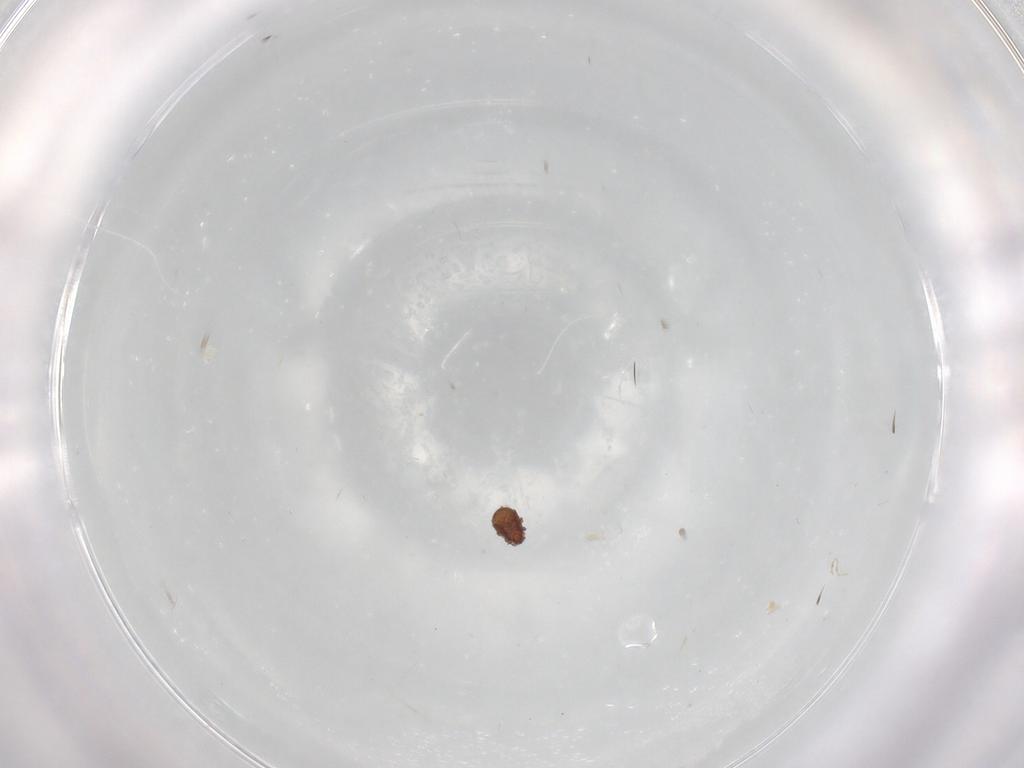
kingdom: Animalia
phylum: Arthropoda
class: Arachnida
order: Sarcoptiformes
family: Tectocepheidae
